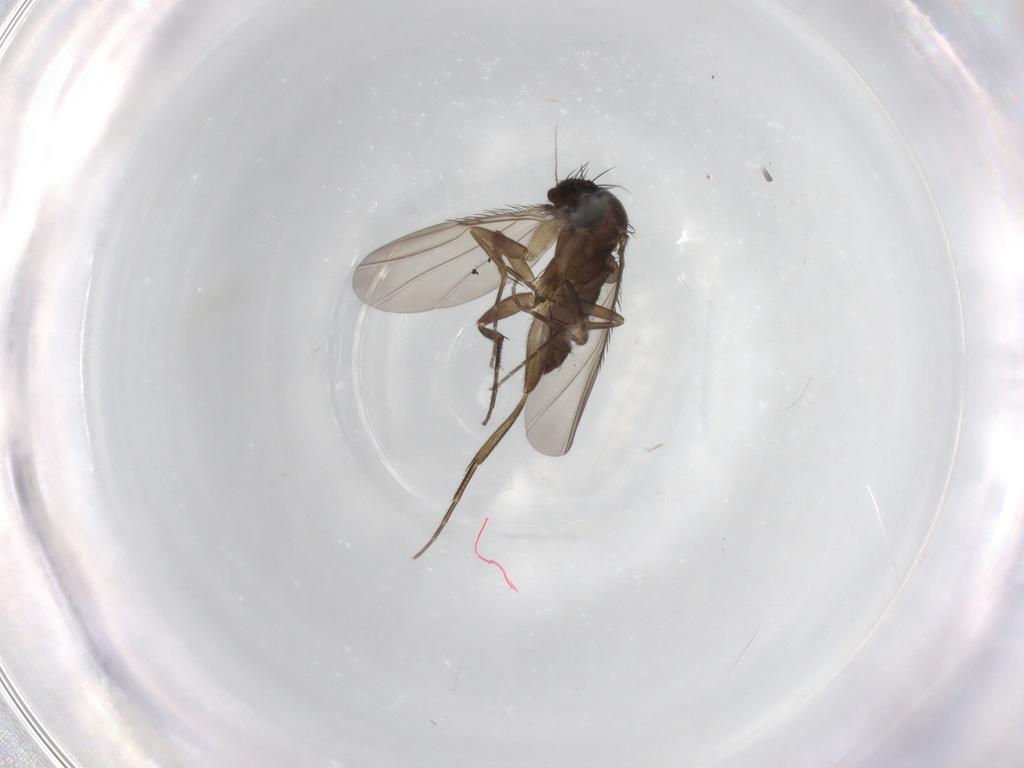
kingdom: Animalia
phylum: Arthropoda
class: Insecta
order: Diptera
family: Phoridae
